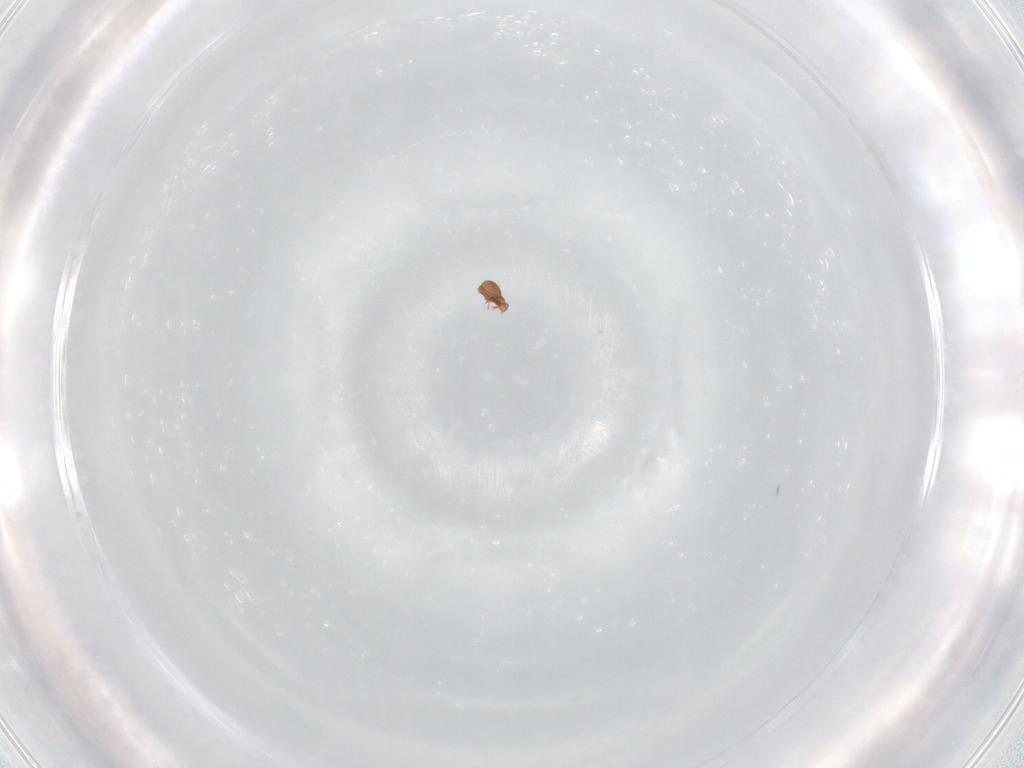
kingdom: Animalia
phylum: Arthropoda
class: Arachnida
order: Sarcoptiformes
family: Oppiidae
